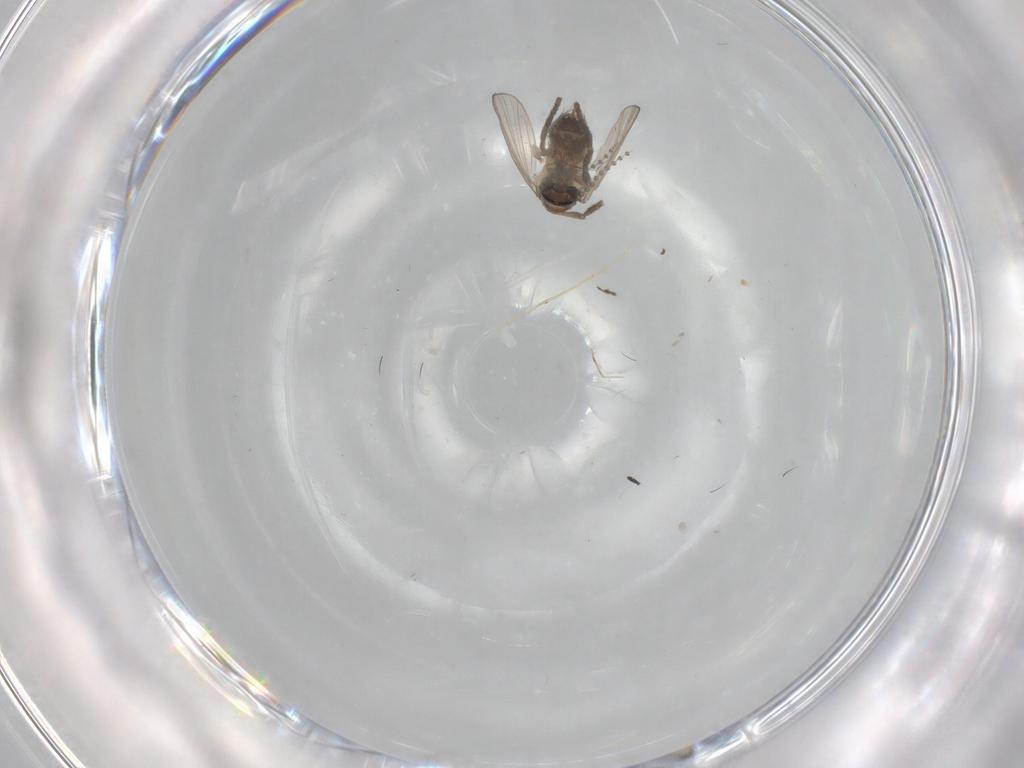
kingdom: Animalia
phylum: Arthropoda
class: Insecta
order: Diptera
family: Psychodidae
